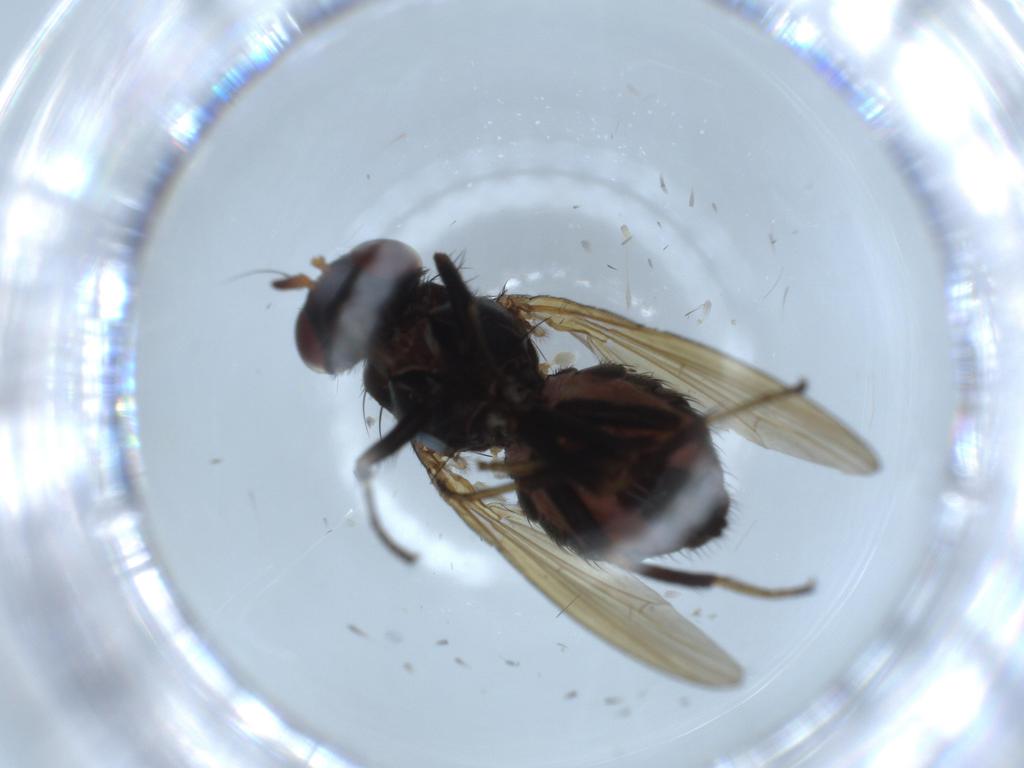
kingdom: Animalia
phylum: Arthropoda
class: Insecta
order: Diptera
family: Lauxaniidae
